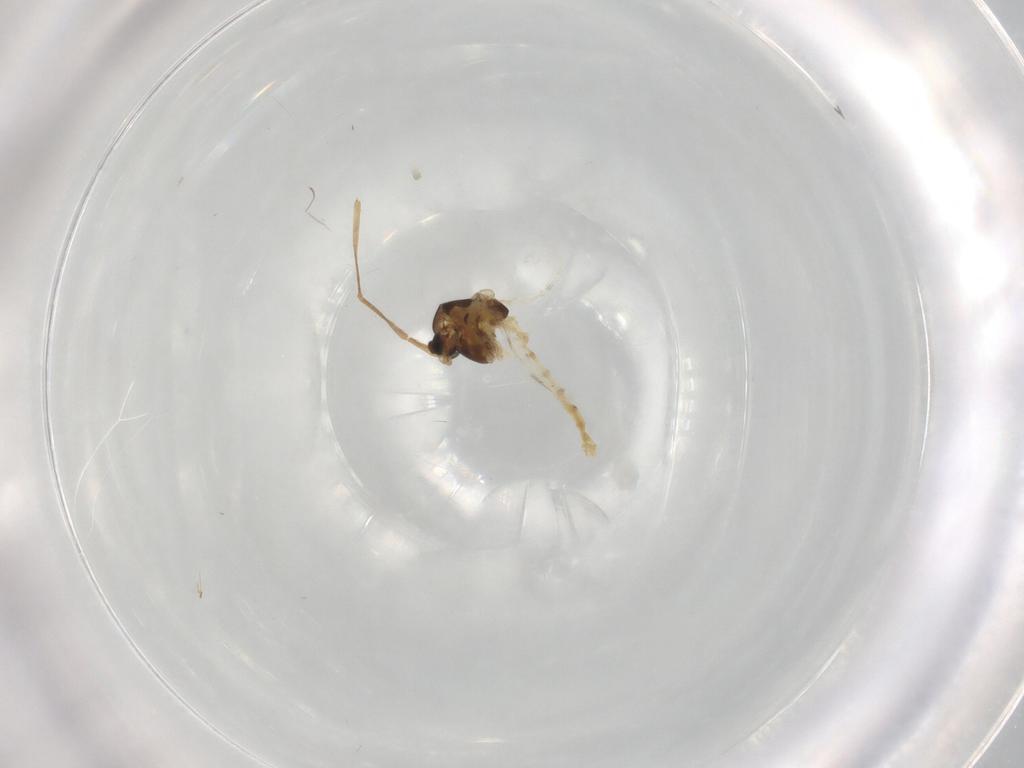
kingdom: Animalia
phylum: Arthropoda
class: Insecta
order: Diptera
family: Chironomidae
